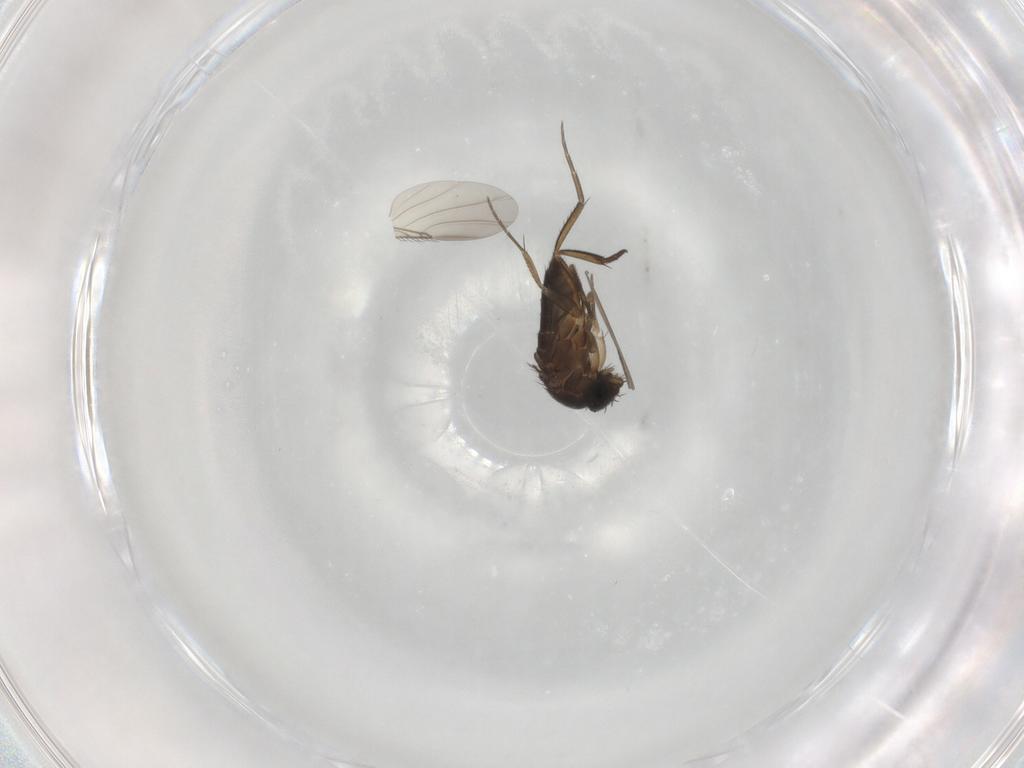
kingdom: Animalia
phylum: Arthropoda
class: Insecta
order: Diptera
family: Phoridae
